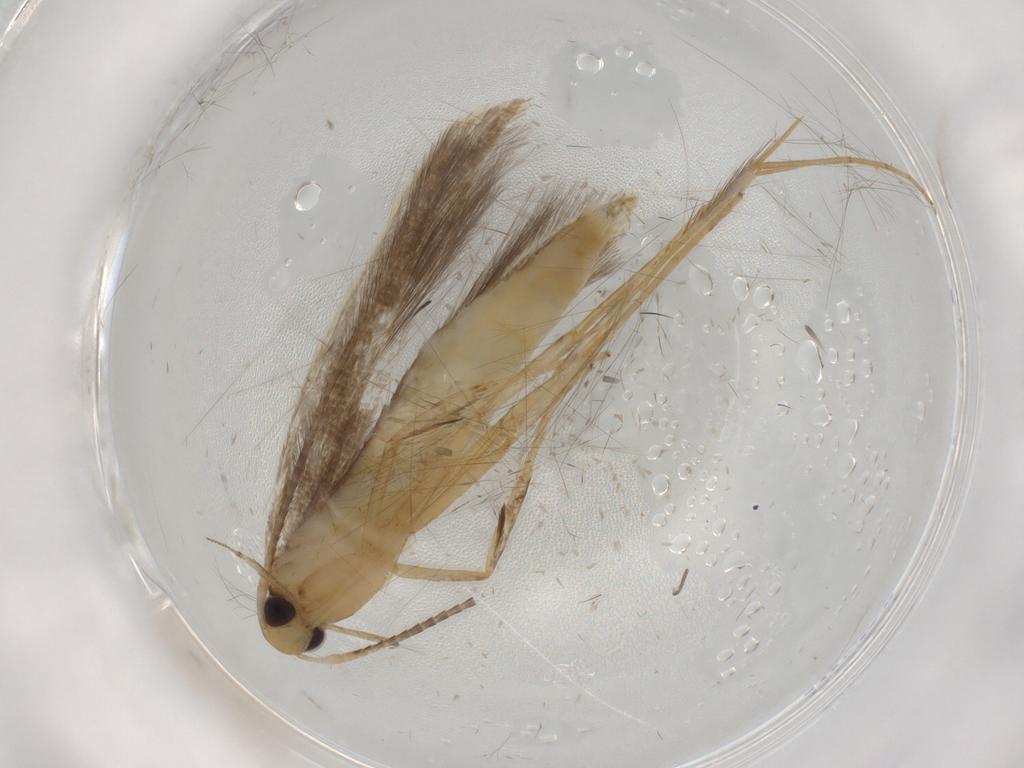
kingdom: Animalia
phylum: Arthropoda
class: Insecta
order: Lepidoptera
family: Pterolonchidae
